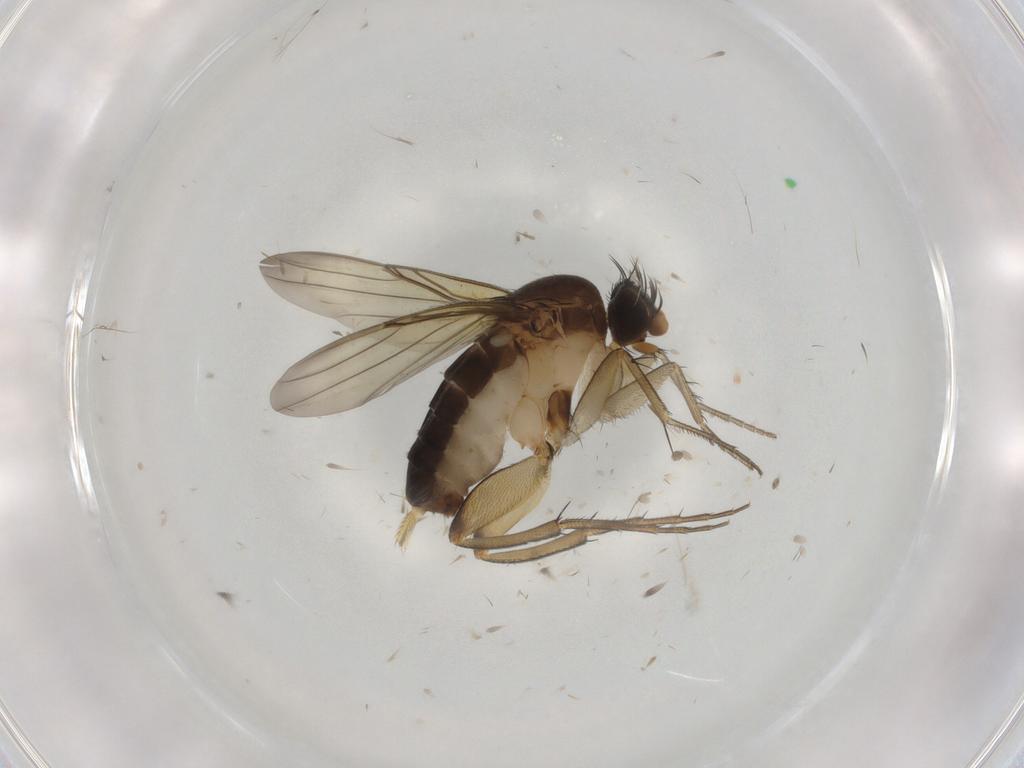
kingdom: Animalia
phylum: Arthropoda
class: Insecta
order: Diptera
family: Phoridae
